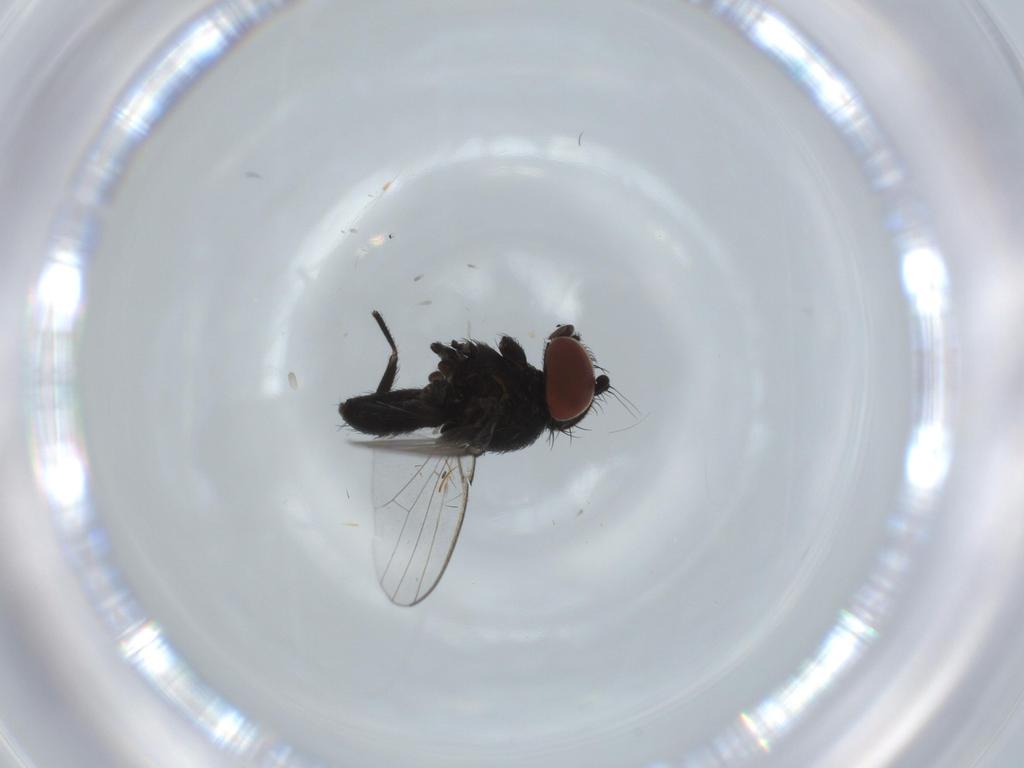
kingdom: Animalia
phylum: Arthropoda
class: Insecta
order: Diptera
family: Milichiidae
